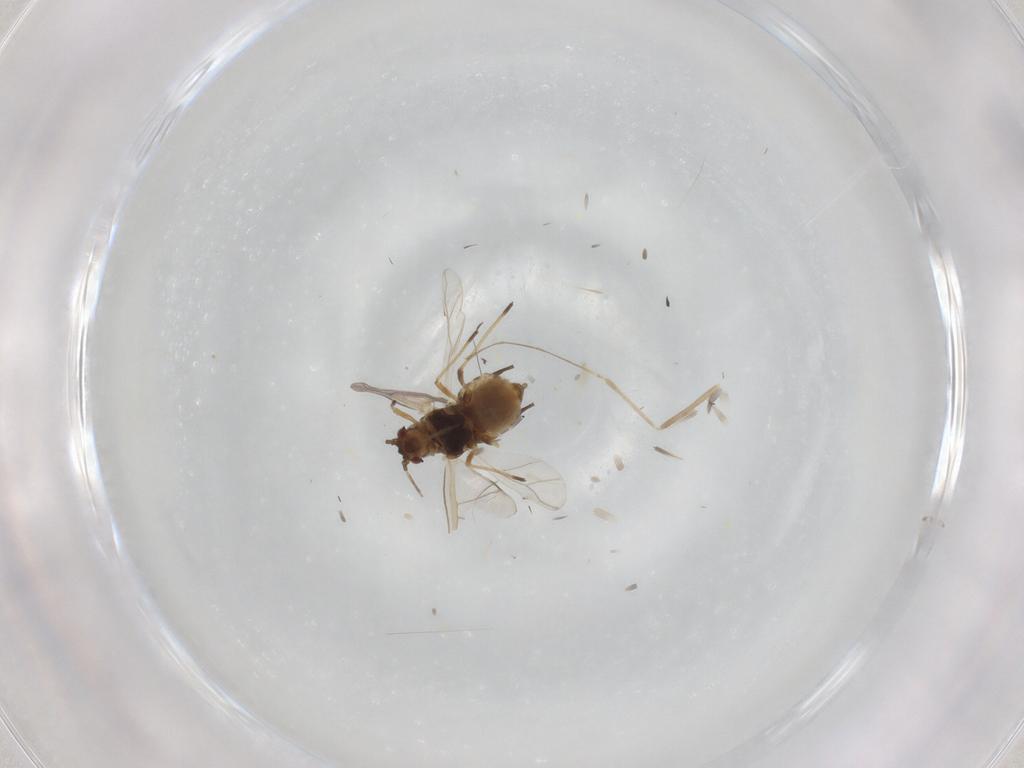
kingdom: Animalia
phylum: Arthropoda
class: Insecta
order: Hemiptera
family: Aphididae
